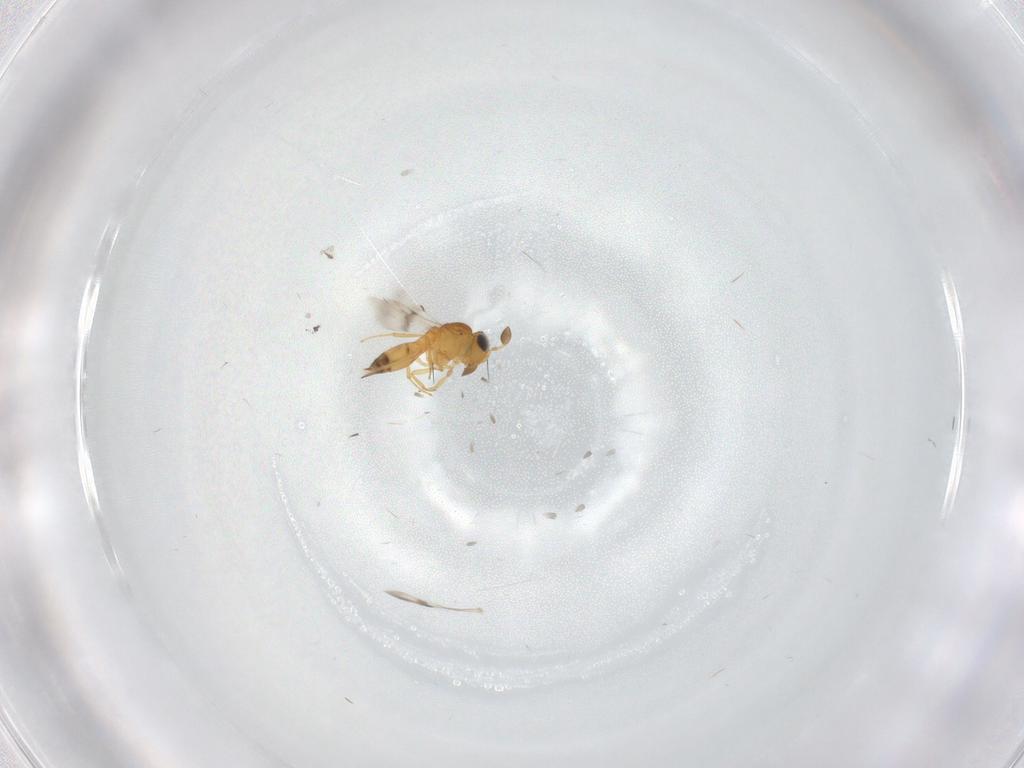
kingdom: Animalia
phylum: Arthropoda
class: Insecta
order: Hymenoptera
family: Scelionidae
